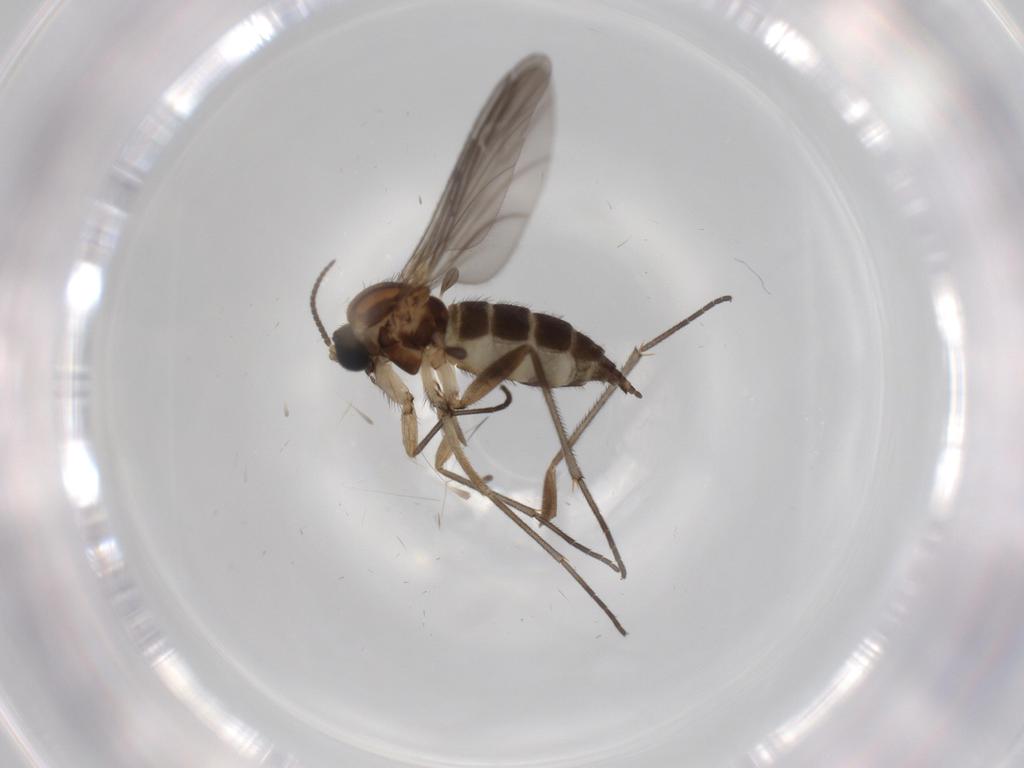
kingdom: Animalia
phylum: Arthropoda
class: Insecta
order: Diptera
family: Sciaridae
